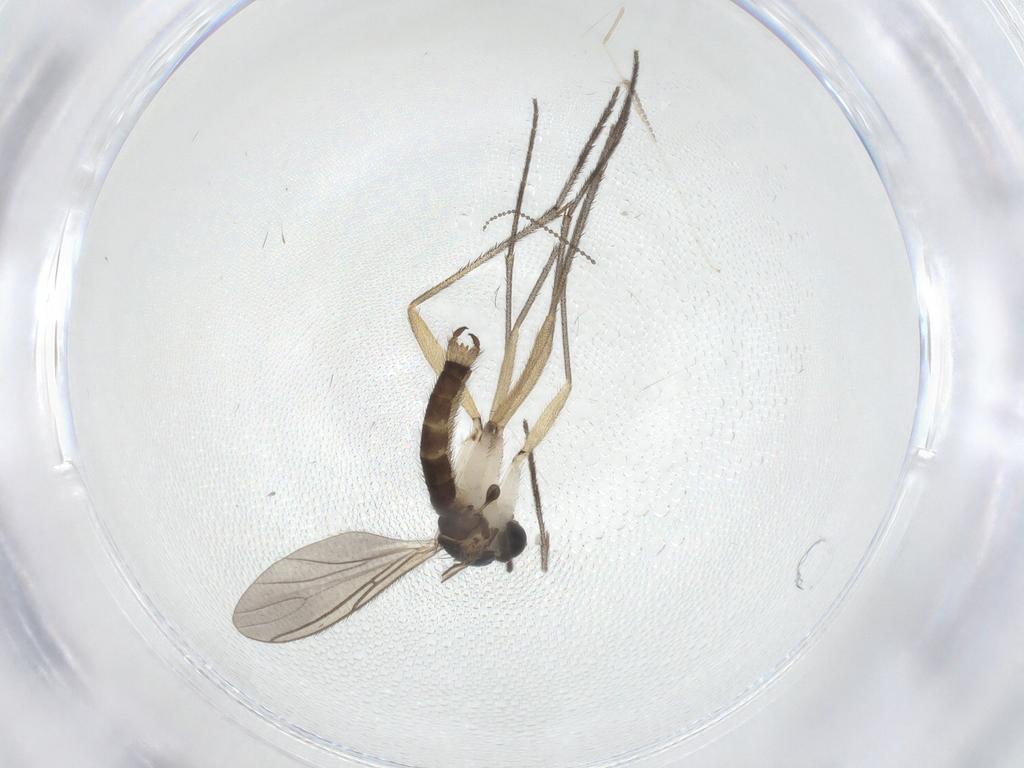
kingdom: Animalia
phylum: Arthropoda
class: Insecta
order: Diptera
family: Sciaridae
